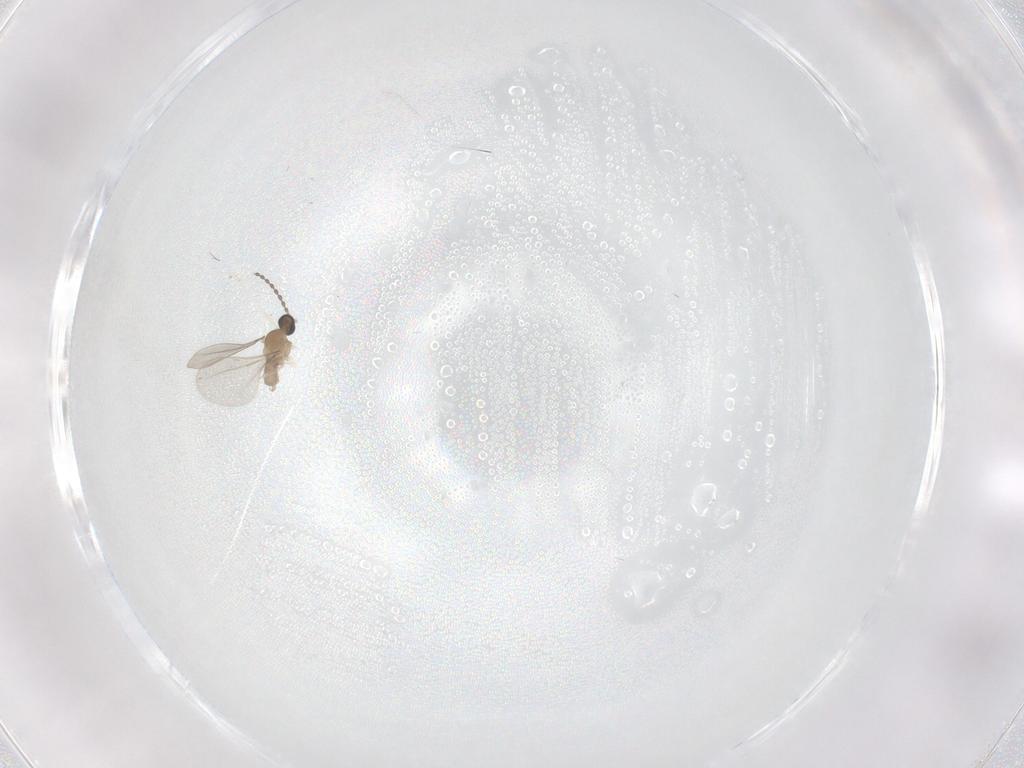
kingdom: Animalia
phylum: Arthropoda
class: Insecta
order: Diptera
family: Cecidomyiidae
